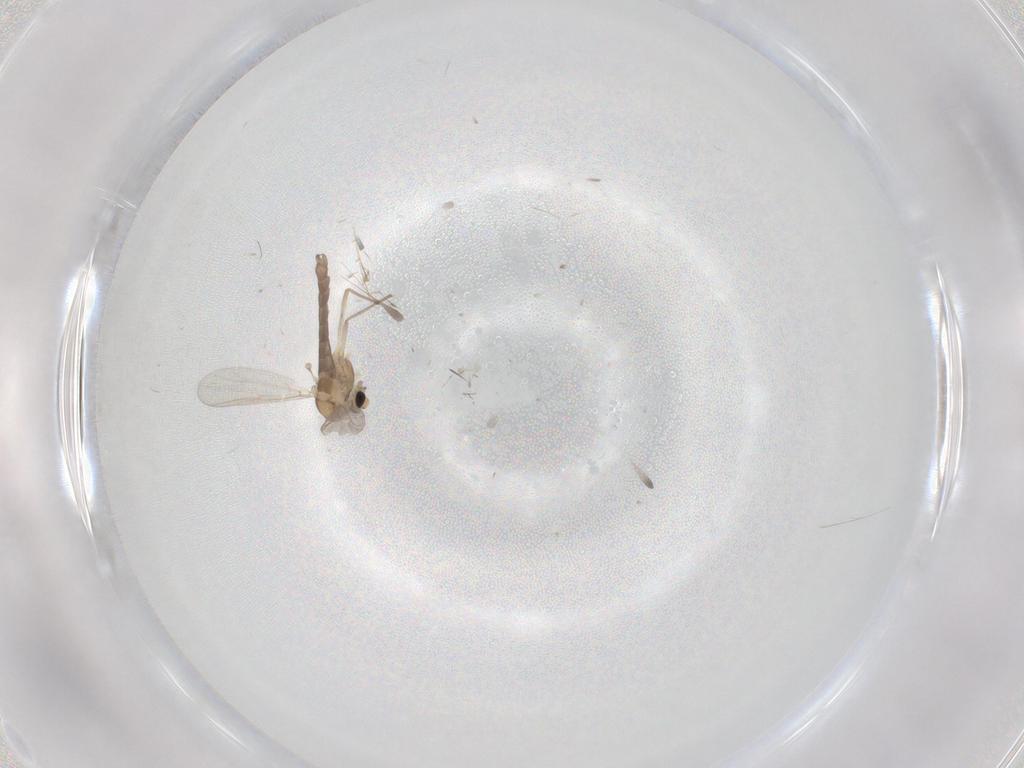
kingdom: Animalia
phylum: Arthropoda
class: Insecta
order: Diptera
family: Chironomidae
